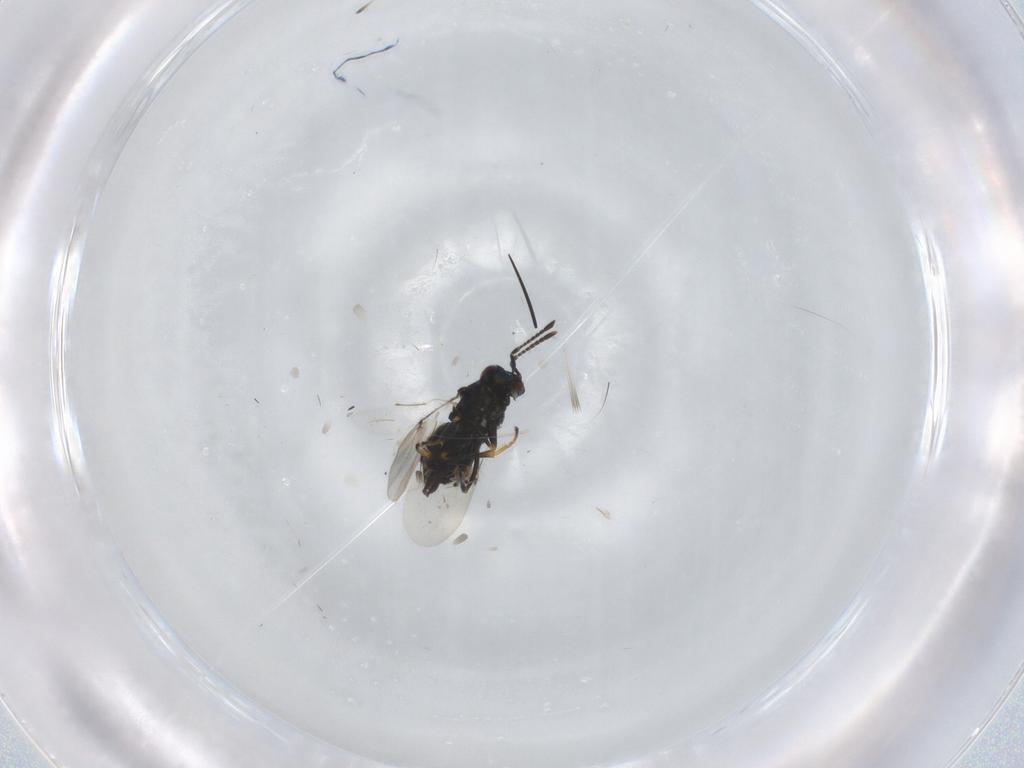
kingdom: Animalia
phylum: Arthropoda
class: Insecta
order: Hymenoptera
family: Encyrtidae
